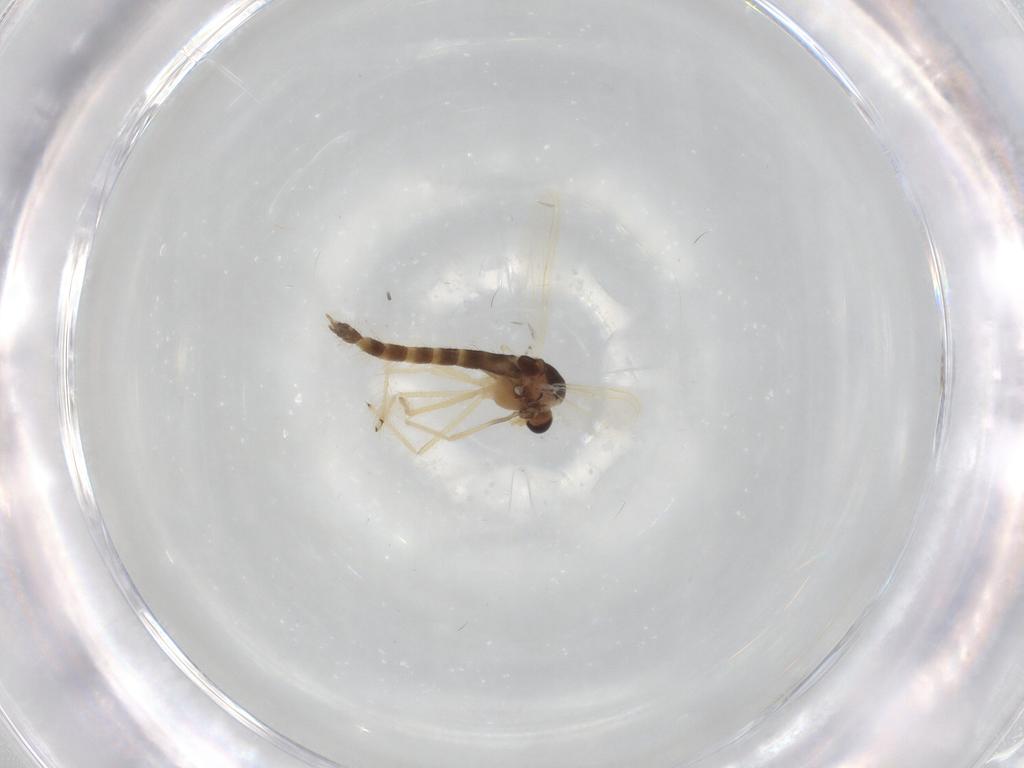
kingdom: Animalia
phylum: Arthropoda
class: Insecta
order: Diptera
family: Chironomidae
